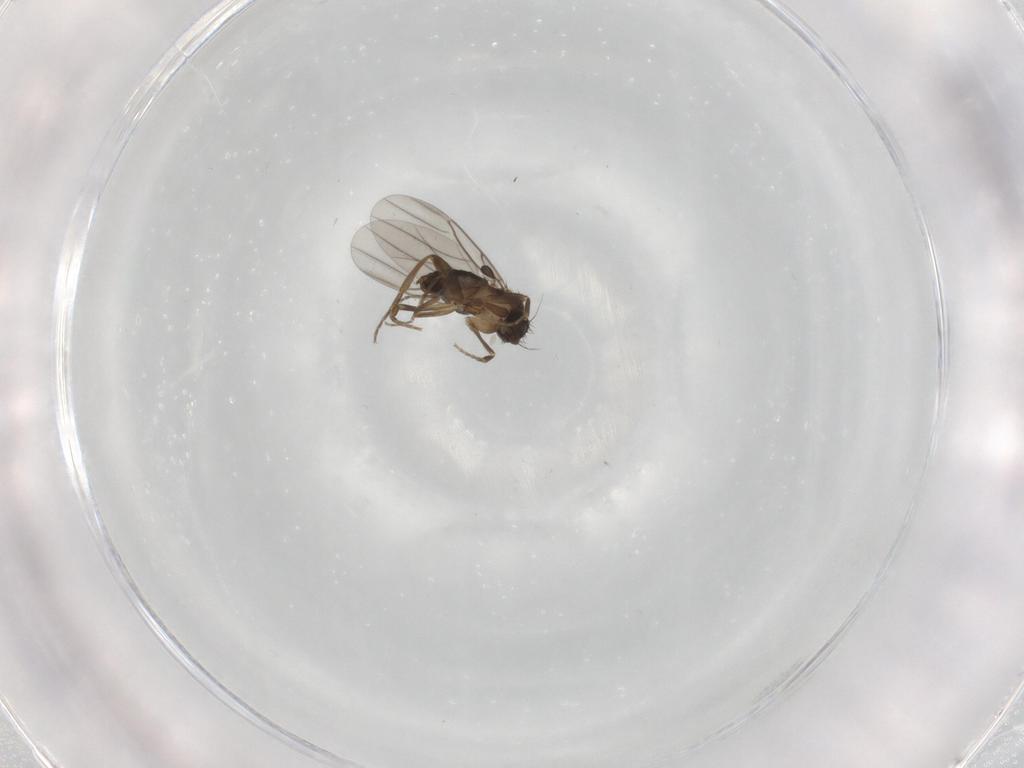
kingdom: Animalia
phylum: Arthropoda
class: Insecta
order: Diptera
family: Phoridae
